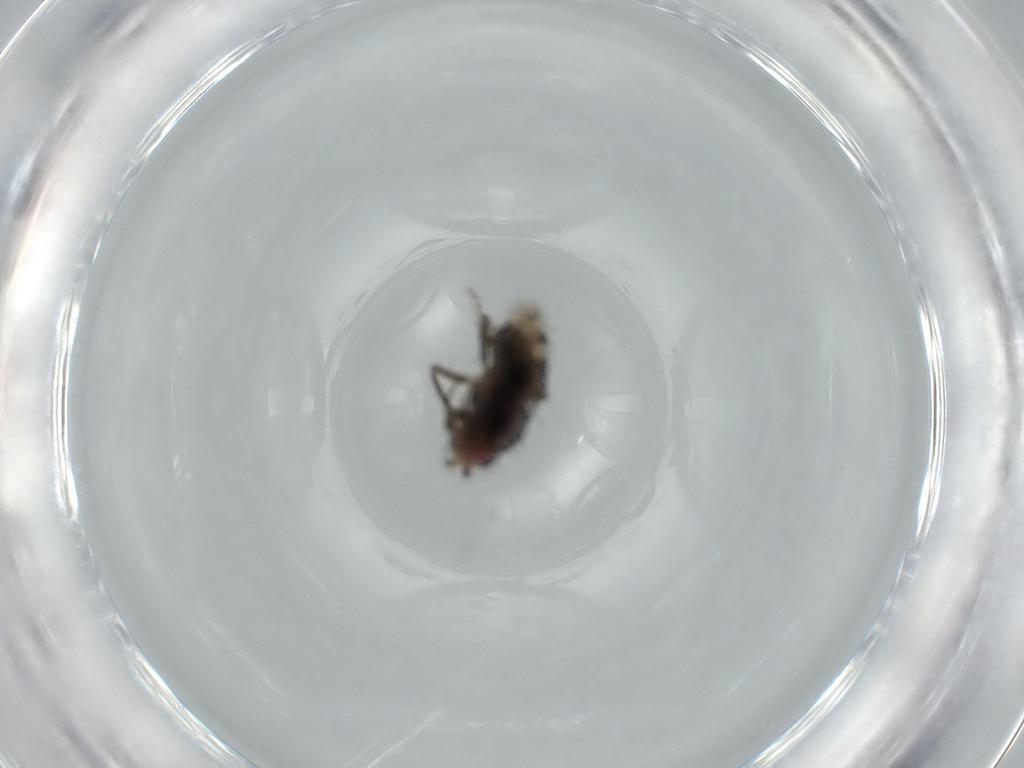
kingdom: Animalia
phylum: Arthropoda
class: Insecta
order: Diptera
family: Sphaeroceridae
